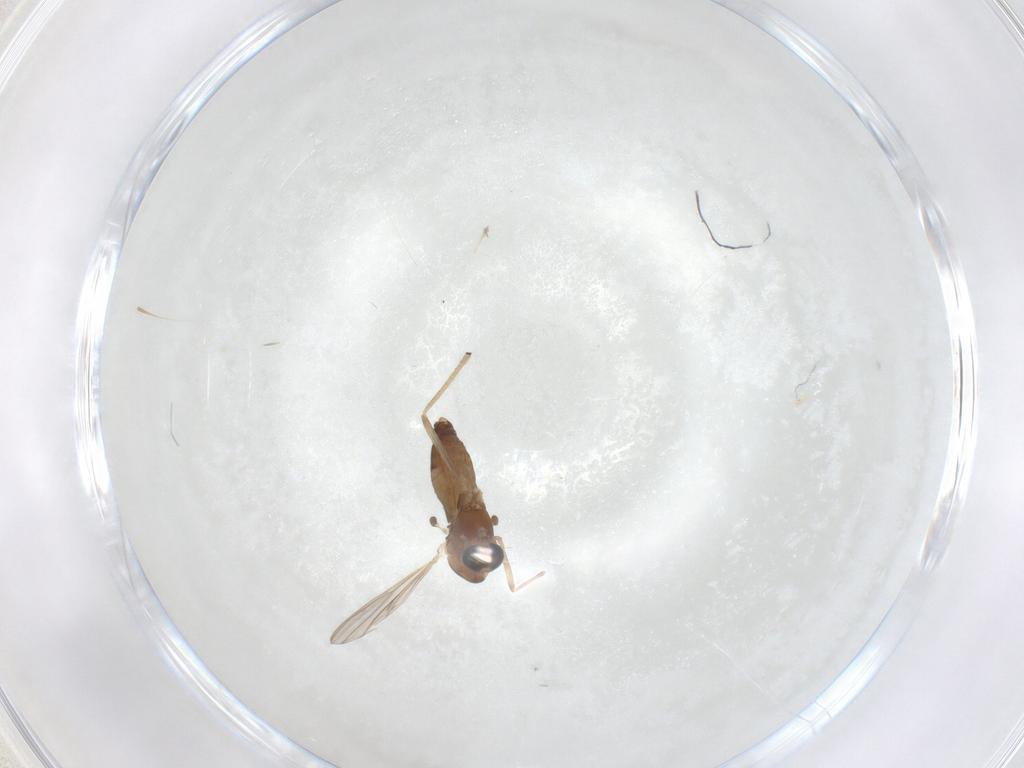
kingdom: Animalia
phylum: Arthropoda
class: Insecta
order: Diptera
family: Chironomidae
